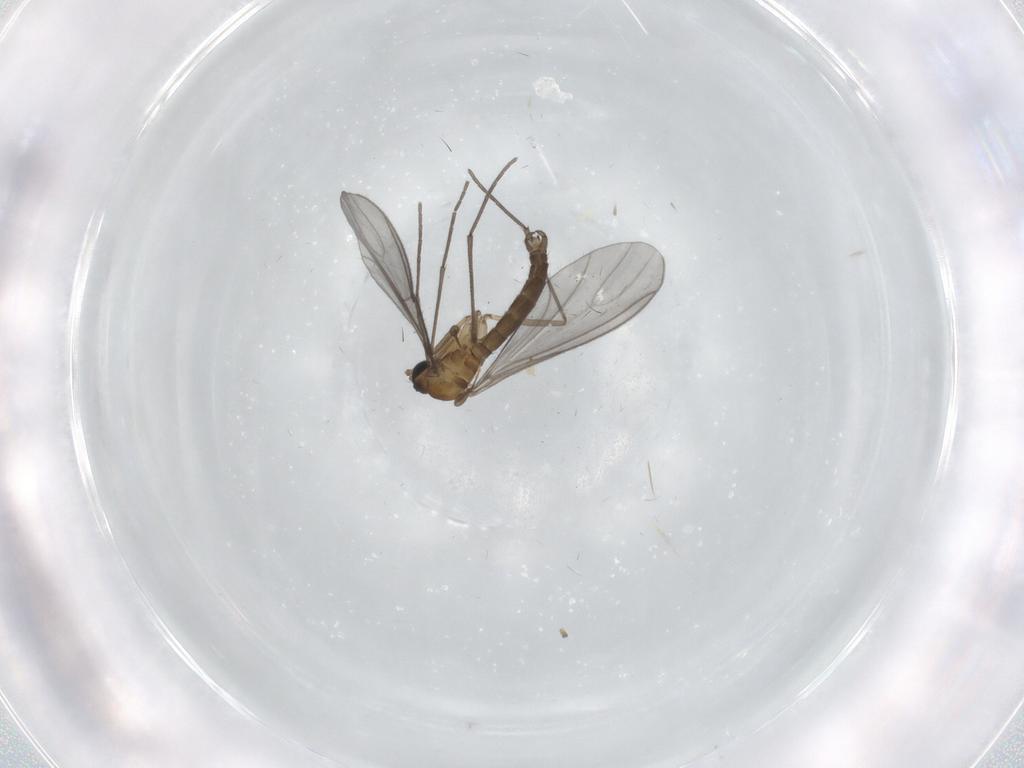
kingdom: Animalia
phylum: Arthropoda
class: Insecta
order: Diptera
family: Sciaridae
